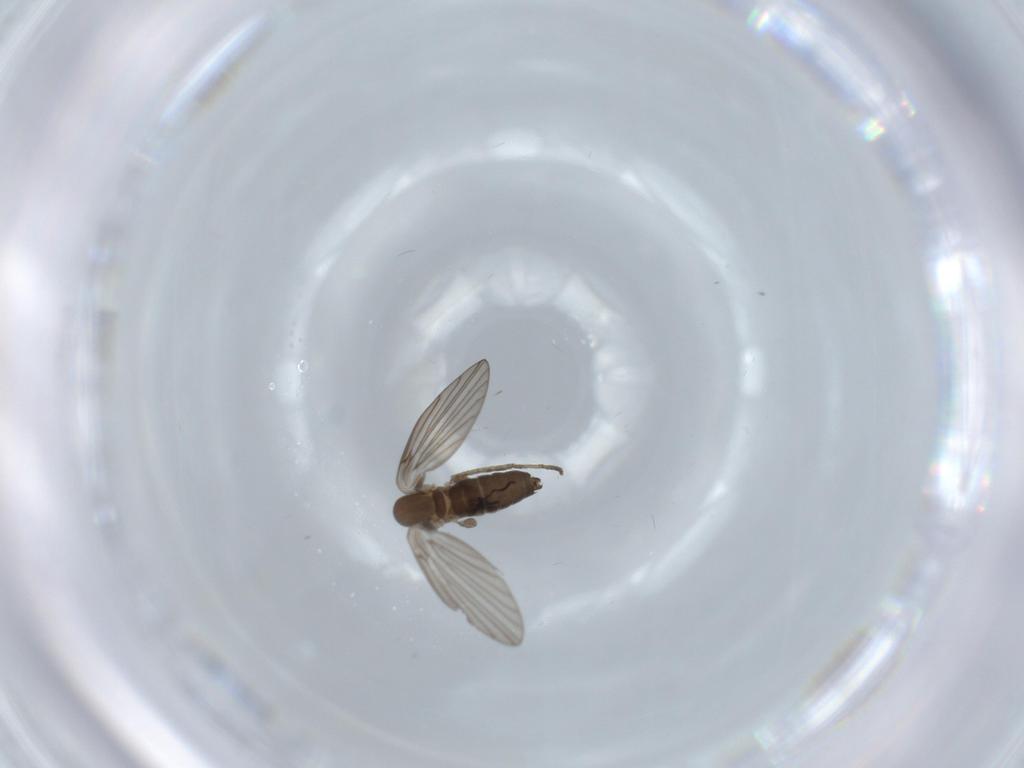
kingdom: Animalia
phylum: Arthropoda
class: Insecta
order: Diptera
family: Psychodidae
